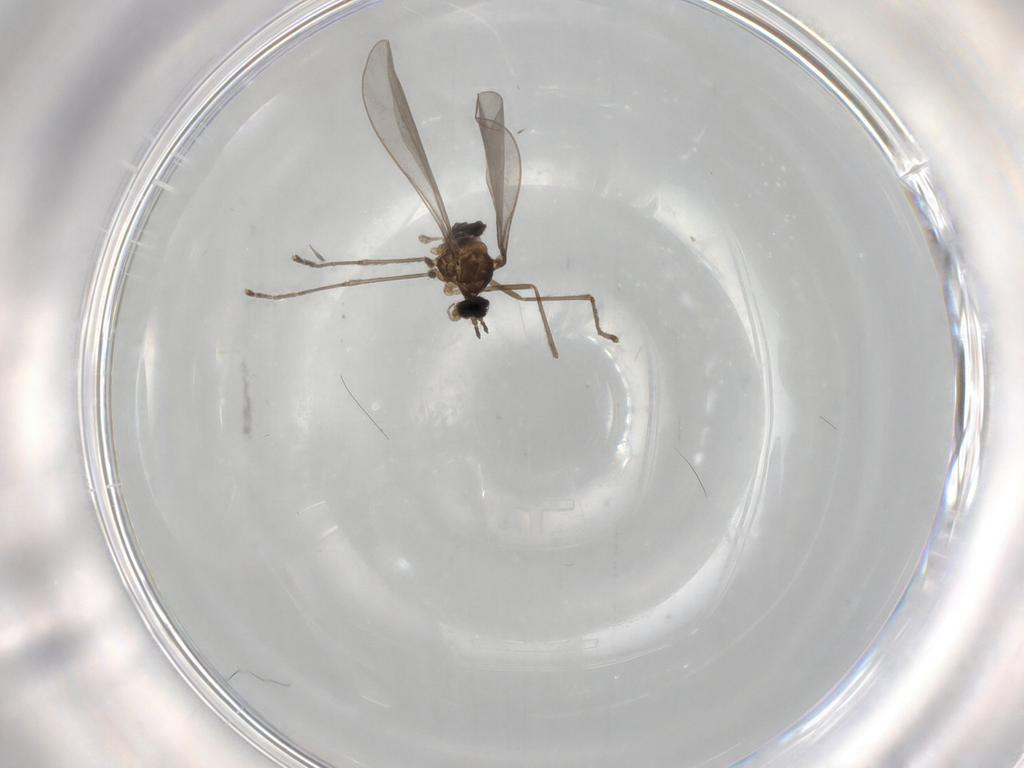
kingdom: Animalia
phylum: Arthropoda
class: Insecta
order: Diptera
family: Cecidomyiidae
